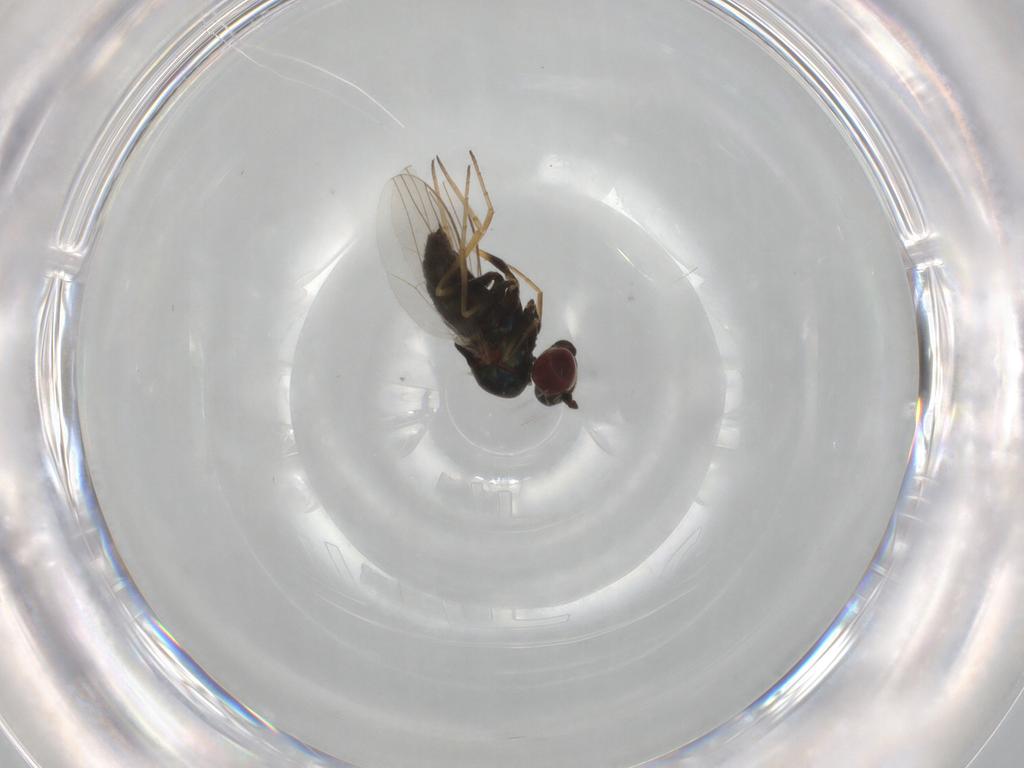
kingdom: Animalia
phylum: Arthropoda
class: Insecta
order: Diptera
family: Dolichopodidae
